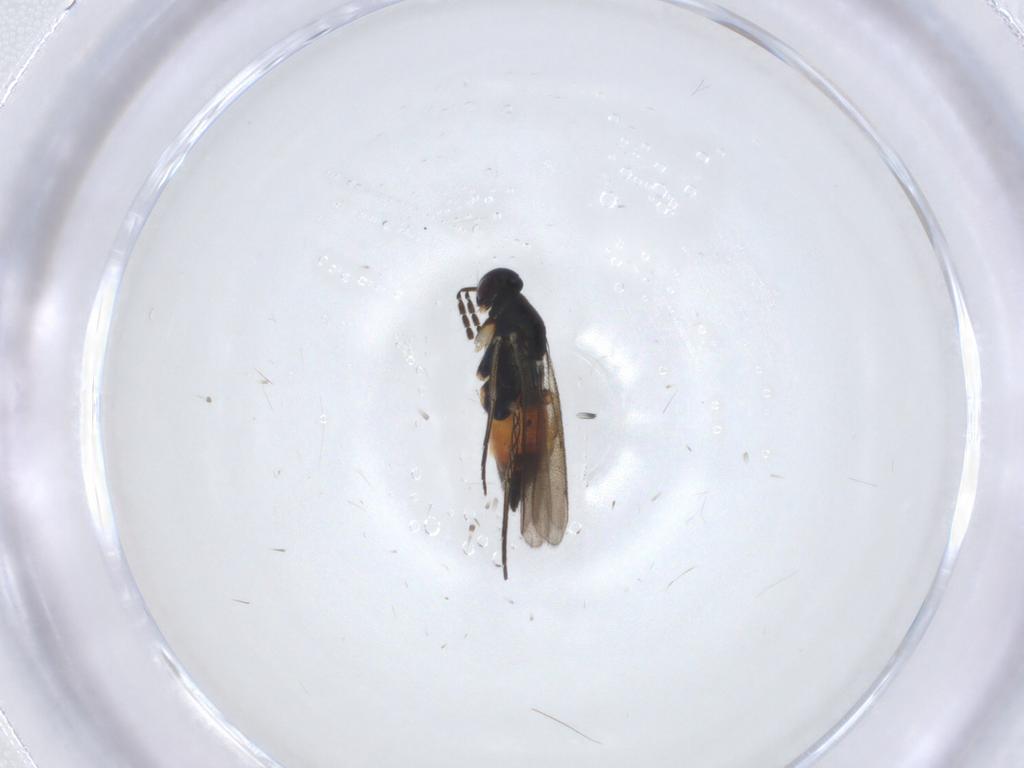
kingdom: Animalia
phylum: Arthropoda
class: Insecta
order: Hymenoptera
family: Eulophidae
